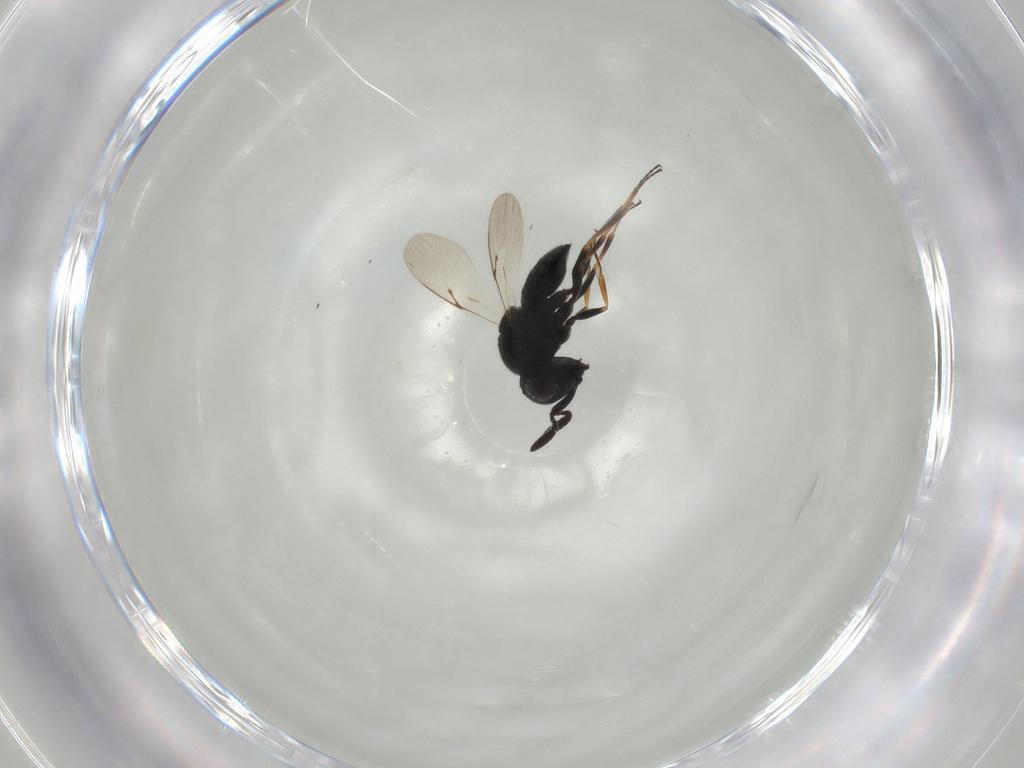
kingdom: Animalia
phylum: Arthropoda
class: Insecta
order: Hymenoptera
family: Scelionidae
